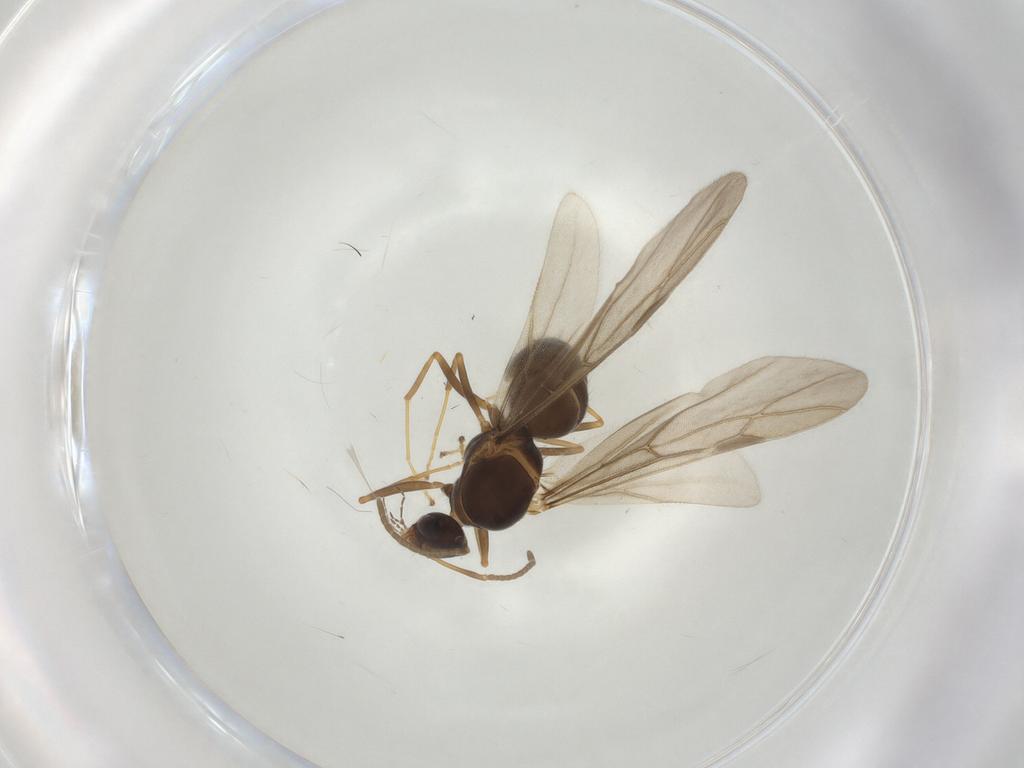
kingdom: Animalia
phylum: Arthropoda
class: Insecta
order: Hymenoptera
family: Formicidae
